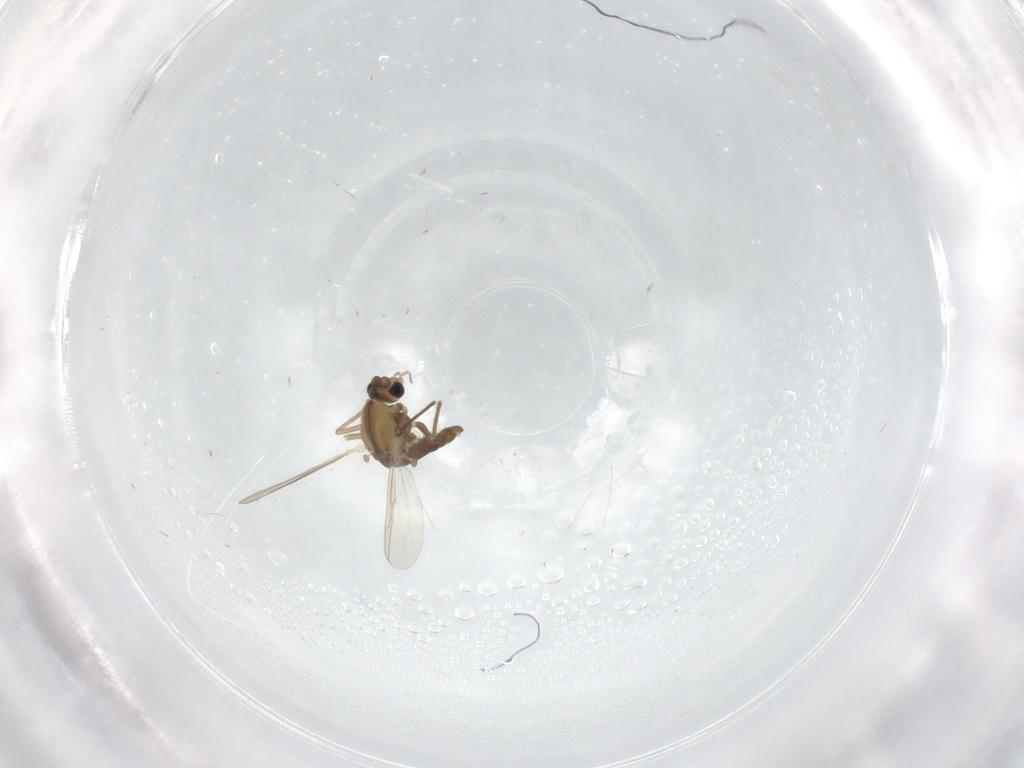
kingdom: Animalia
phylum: Arthropoda
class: Insecta
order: Diptera
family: Chironomidae
